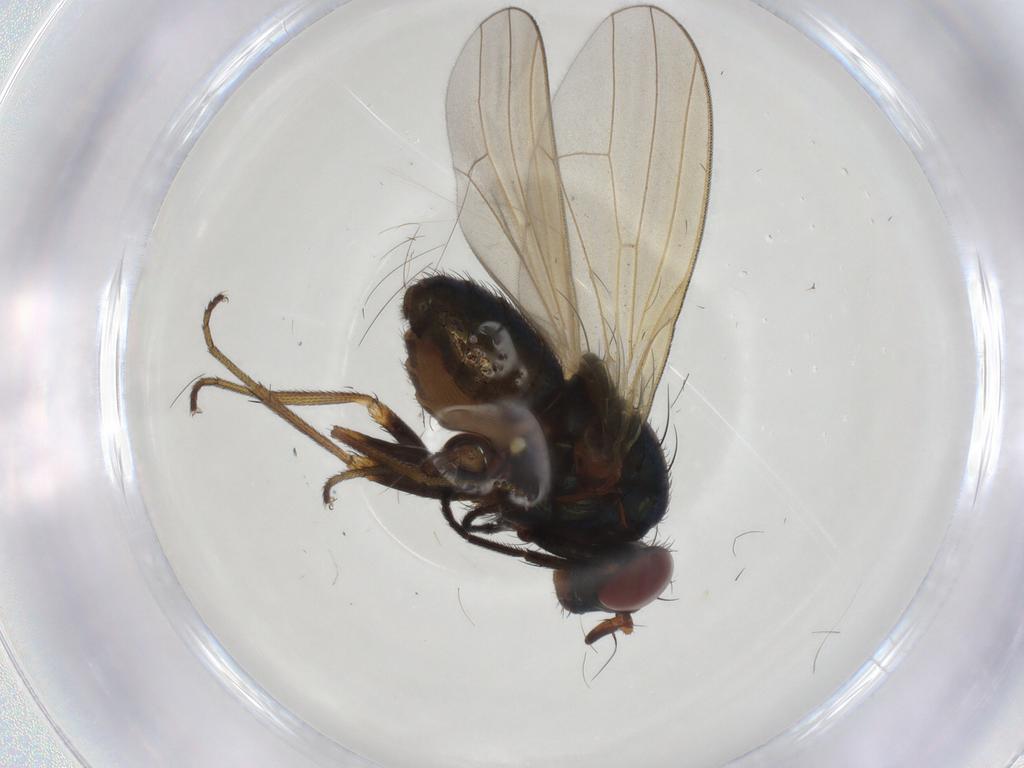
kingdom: Animalia
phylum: Arthropoda
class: Insecta
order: Diptera
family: Lauxaniidae
